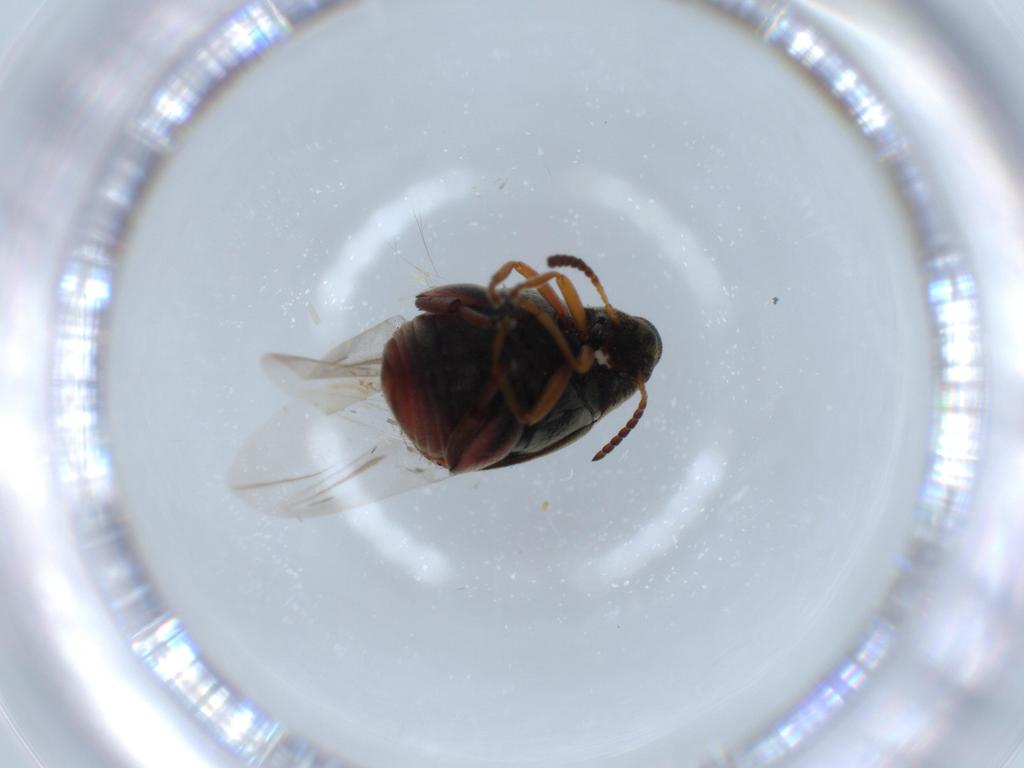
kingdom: Animalia
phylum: Arthropoda
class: Insecta
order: Coleoptera
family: Chrysomelidae
